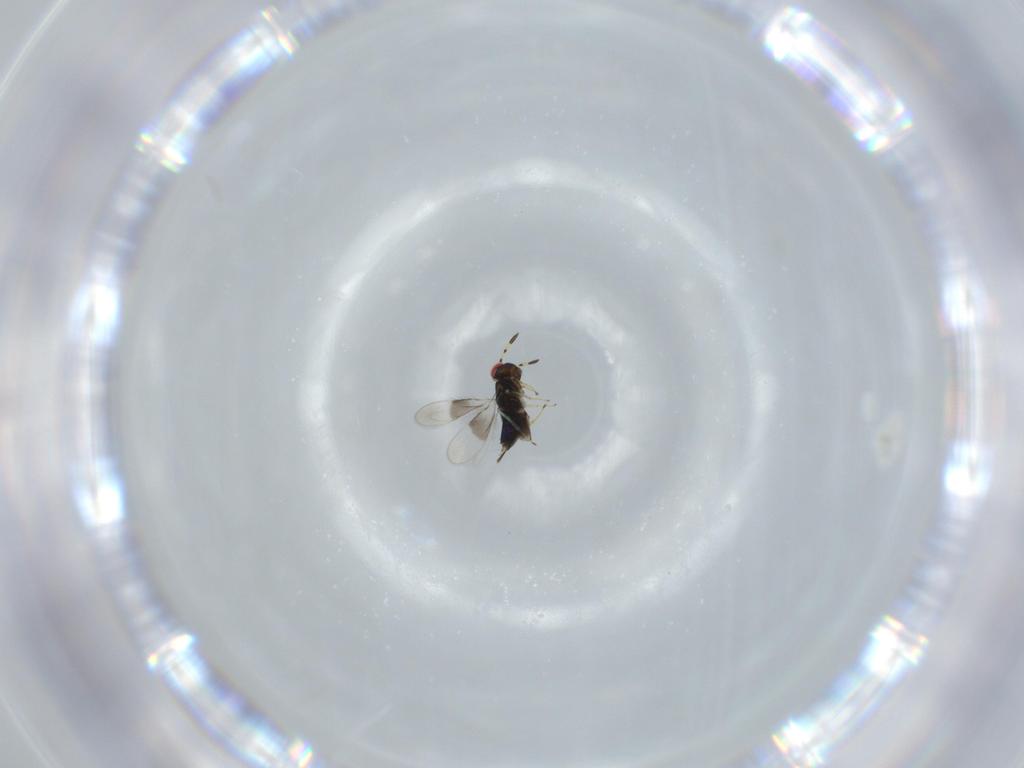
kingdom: Animalia
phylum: Arthropoda
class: Insecta
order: Hymenoptera
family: Azotidae
